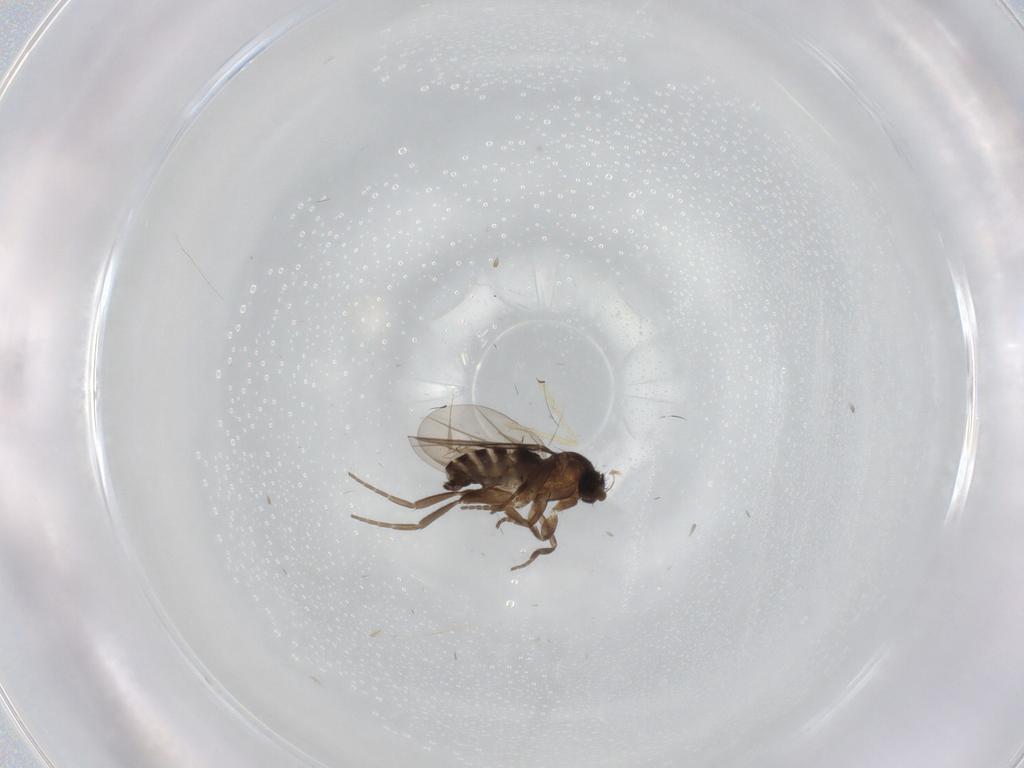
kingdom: Animalia
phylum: Arthropoda
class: Insecta
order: Diptera
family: Phoridae
